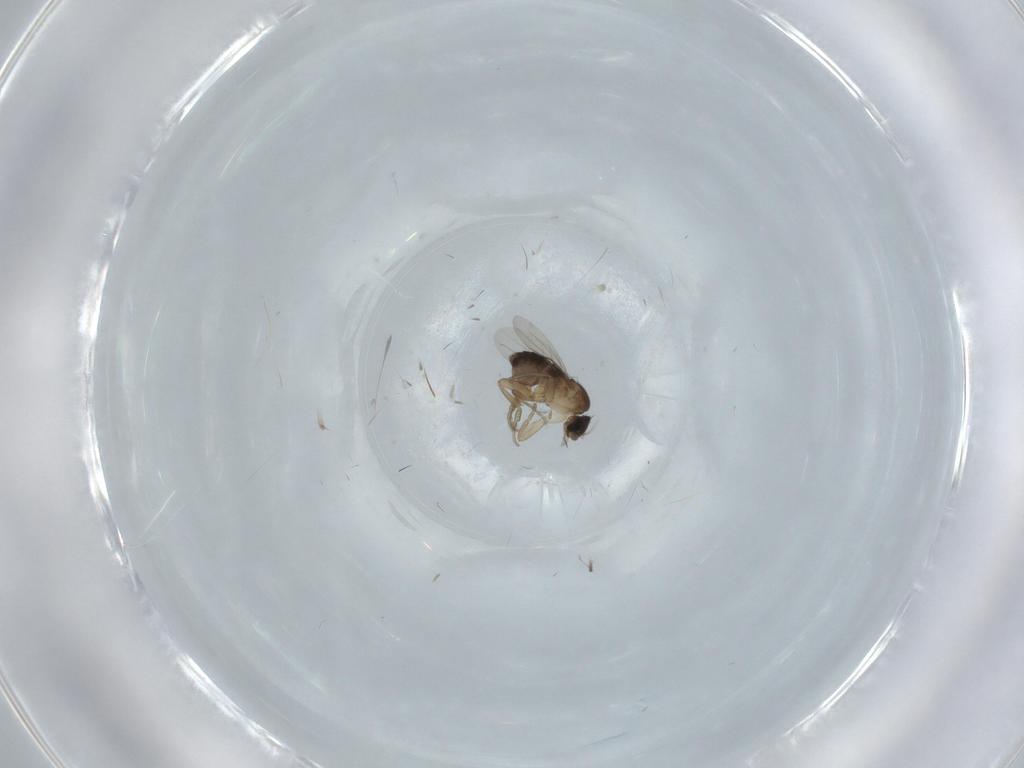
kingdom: Animalia
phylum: Arthropoda
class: Insecta
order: Diptera
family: Phoridae
